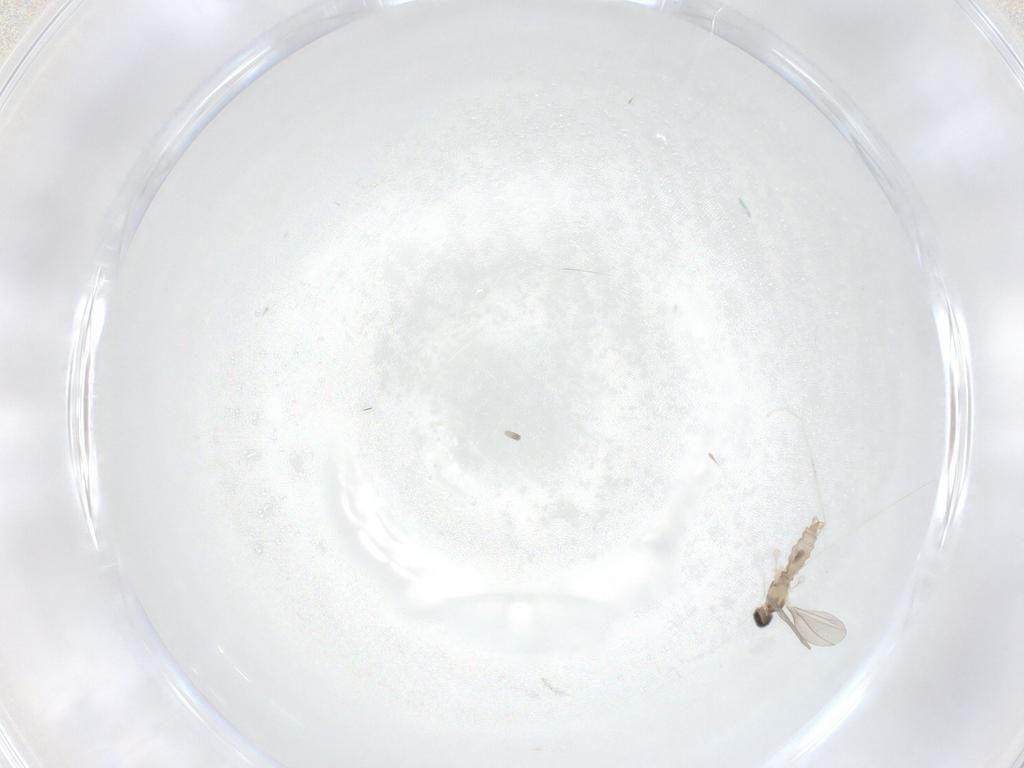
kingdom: Animalia
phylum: Arthropoda
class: Insecta
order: Diptera
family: Cecidomyiidae
